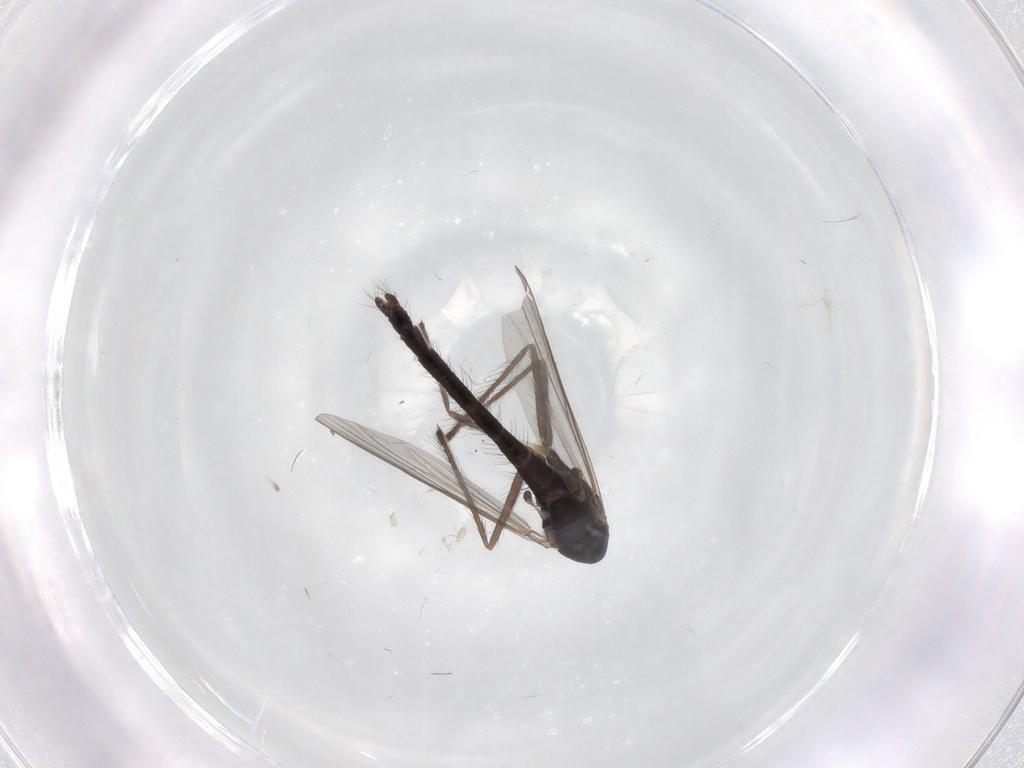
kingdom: Animalia
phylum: Arthropoda
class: Insecta
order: Diptera
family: Chironomidae
